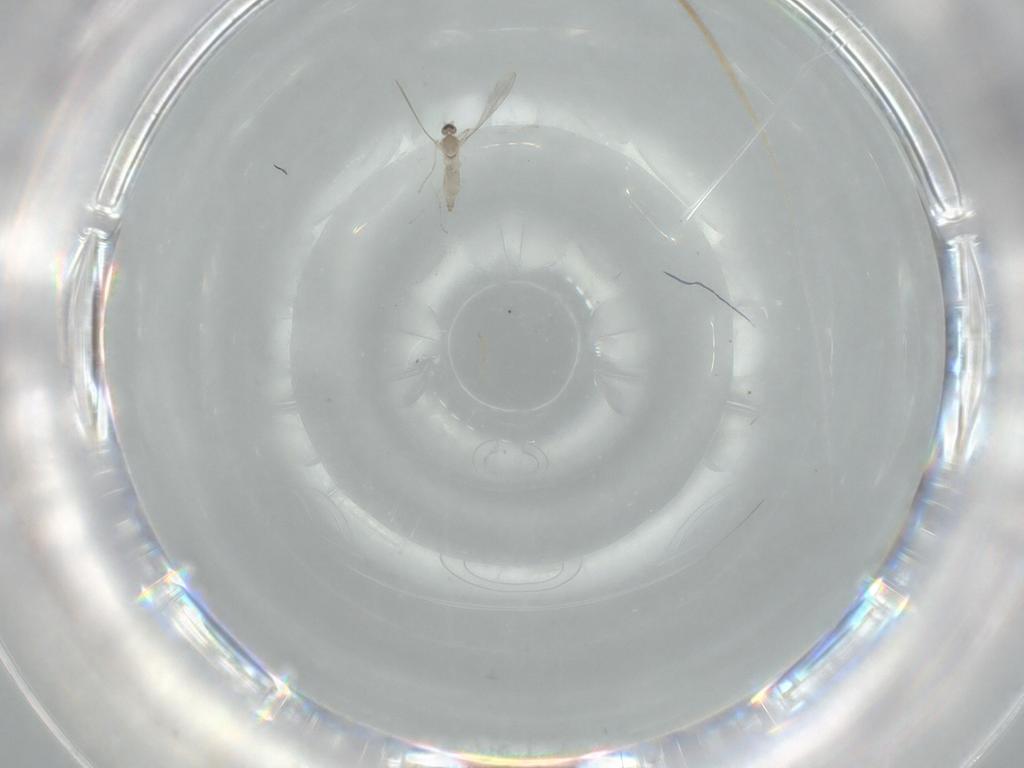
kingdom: Animalia
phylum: Arthropoda
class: Insecta
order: Diptera
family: Cecidomyiidae
